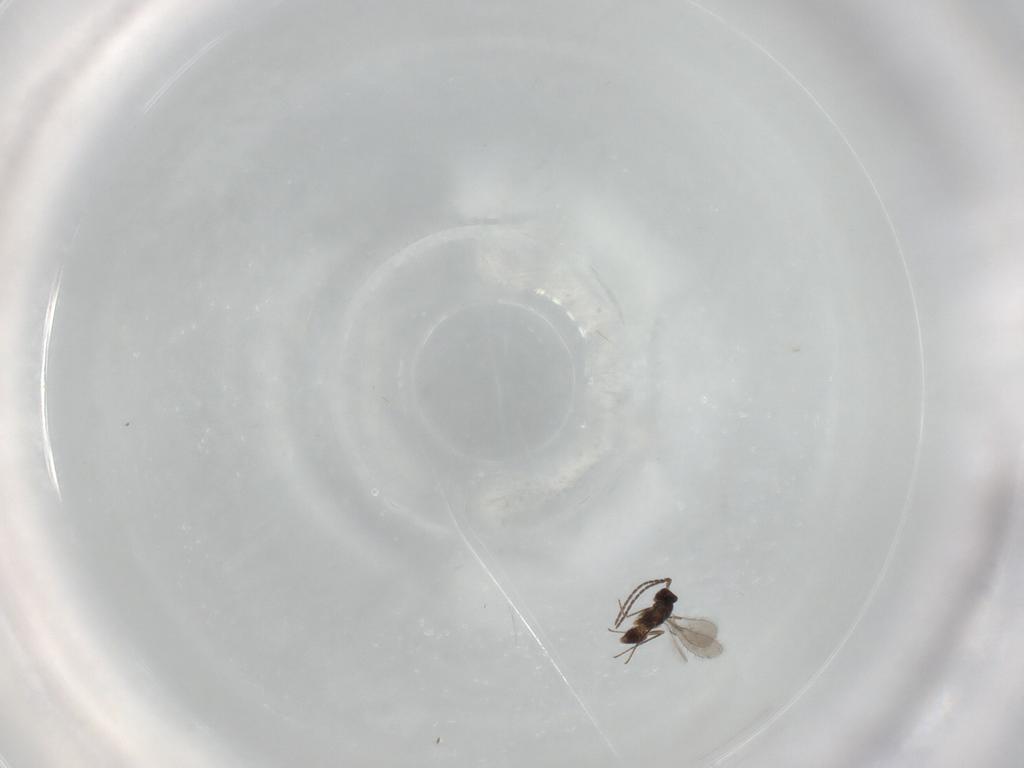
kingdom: Animalia
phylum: Arthropoda
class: Insecta
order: Hymenoptera
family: Mymaridae
